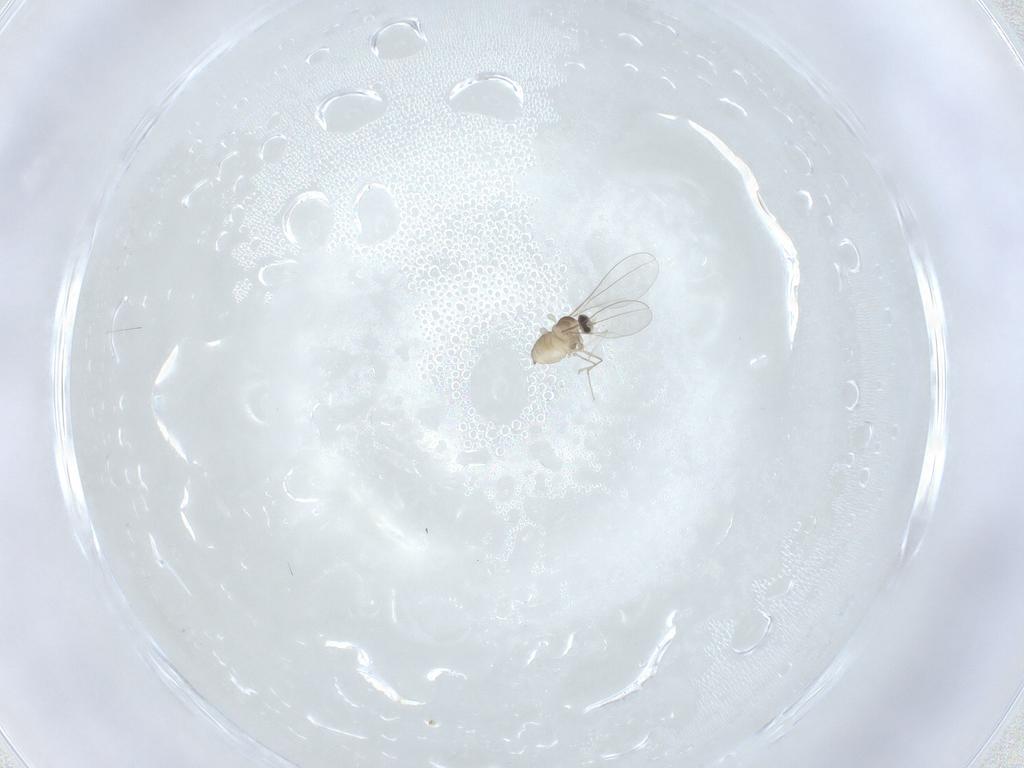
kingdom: Animalia
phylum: Arthropoda
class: Insecta
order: Diptera
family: Cecidomyiidae
